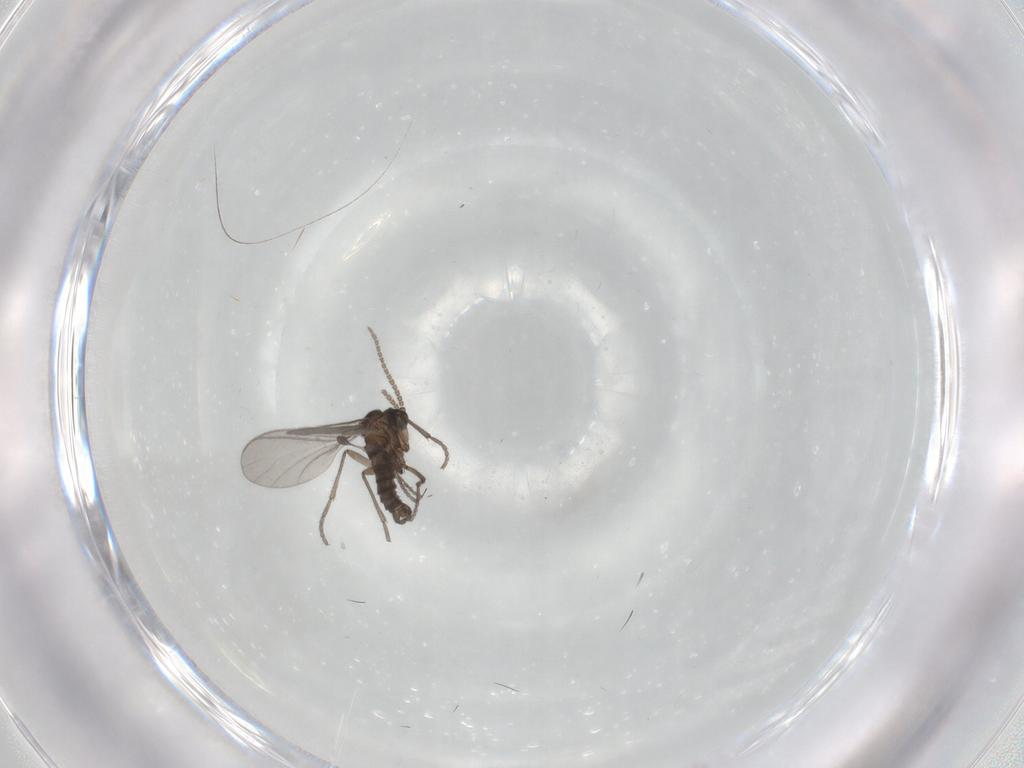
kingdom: Animalia
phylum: Arthropoda
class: Insecta
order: Diptera
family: Sciaridae
